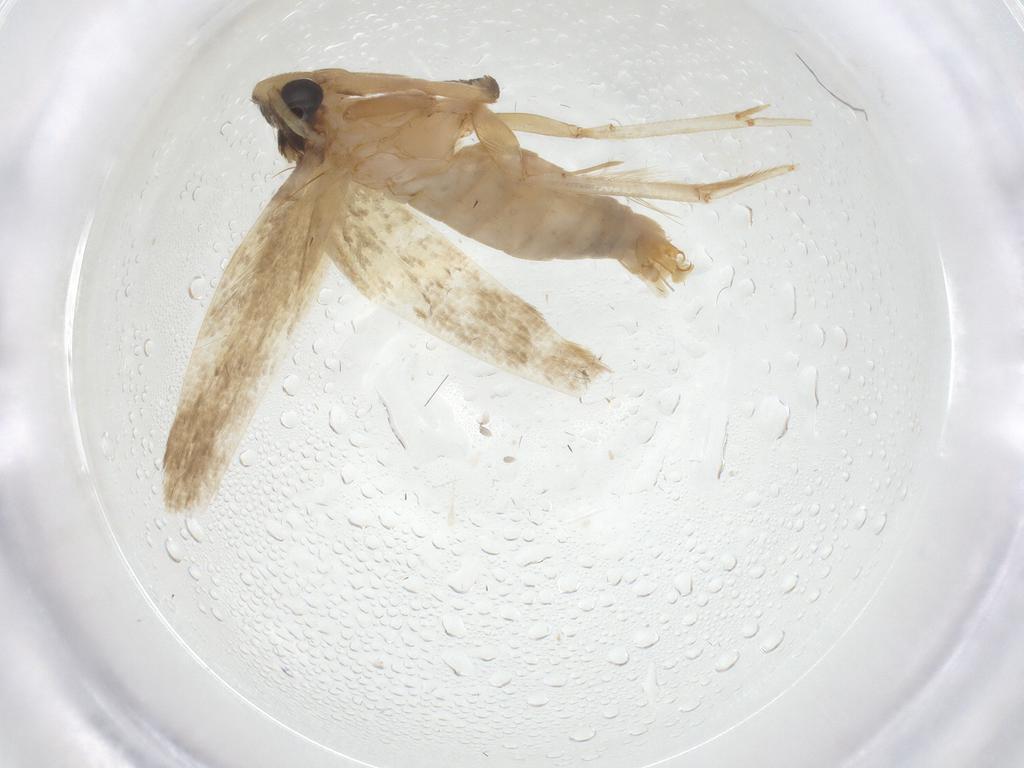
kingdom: Animalia
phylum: Arthropoda
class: Insecta
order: Lepidoptera
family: Tineidae
